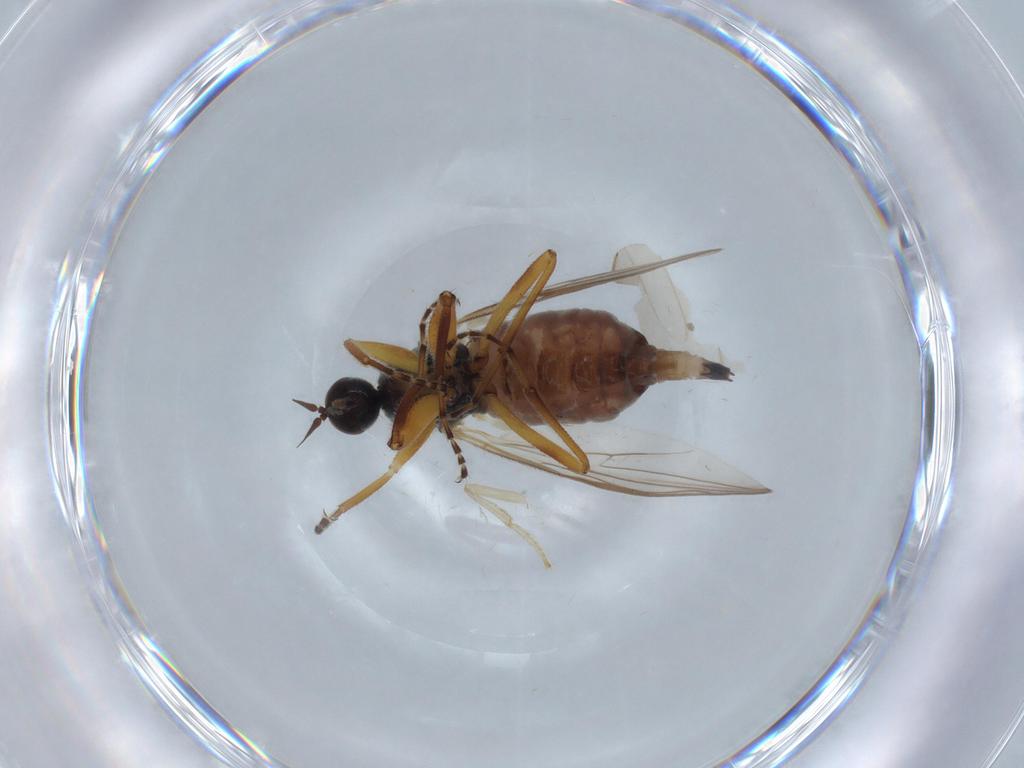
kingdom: Animalia
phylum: Arthropoda
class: Insecta
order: Diptera
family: Hybotidae
